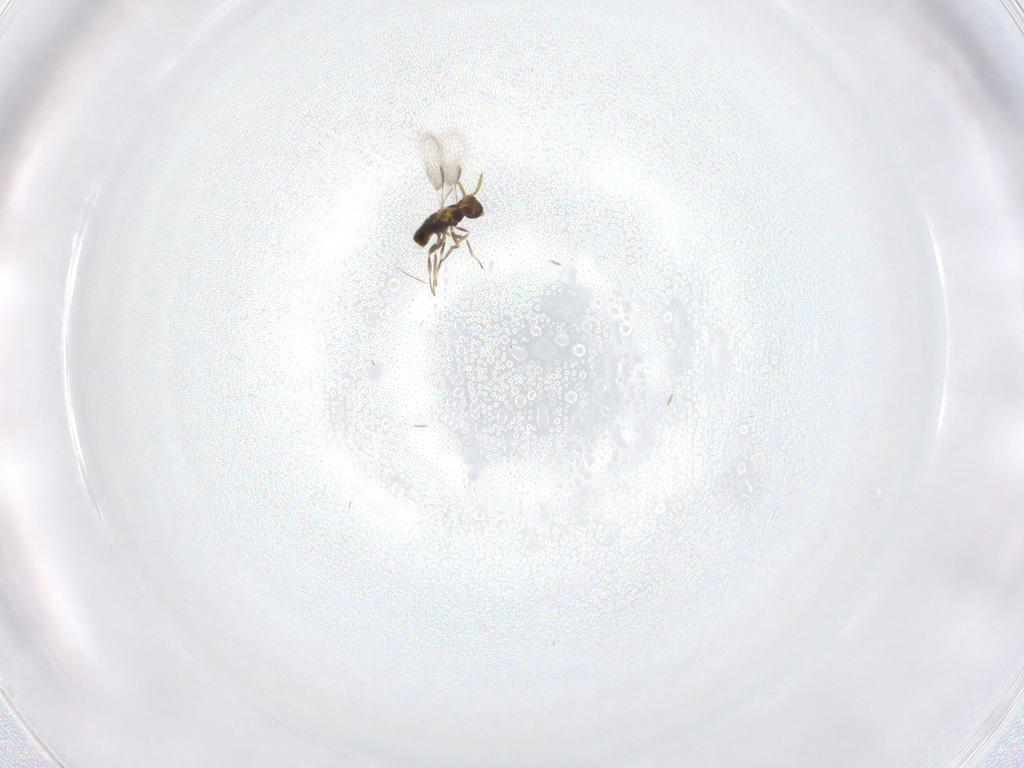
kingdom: Animalia
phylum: Arthropoda
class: Insecta
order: Hymenoptera
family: Aphelinidae
